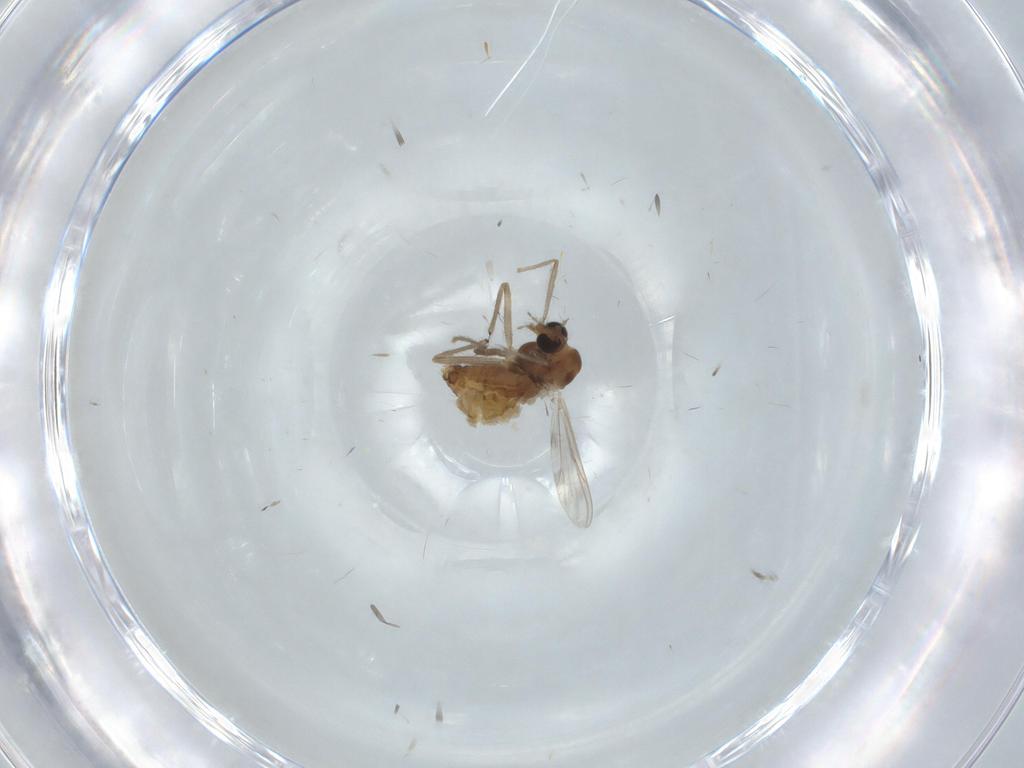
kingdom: Animalia
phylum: Arthropoda
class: Insecta
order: Diptera
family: Chironomidae
